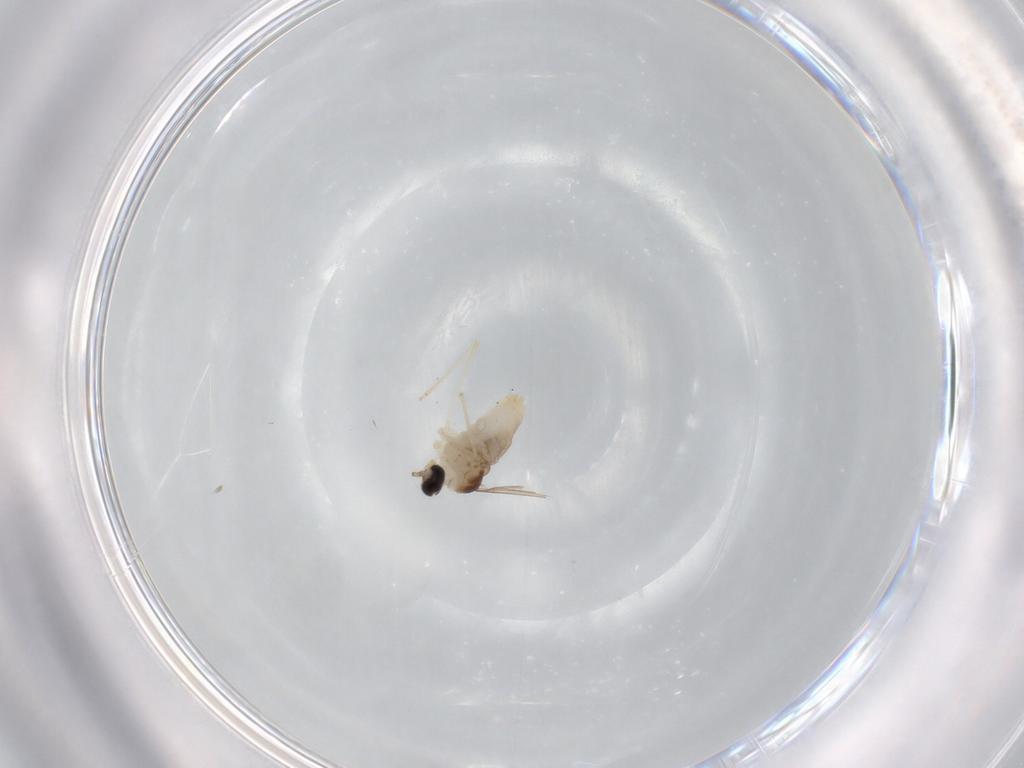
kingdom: Animalia
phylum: Arthropoda
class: Insecta
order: Diptera
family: Cecidomyiidae
